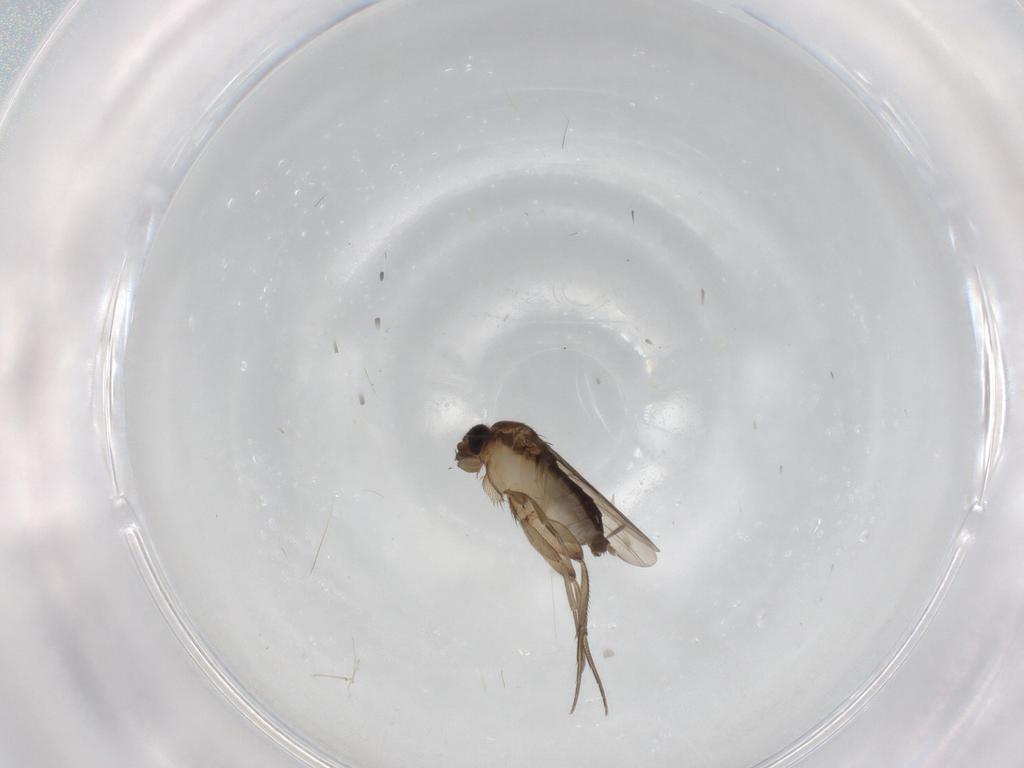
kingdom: Animalia
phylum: Arthropoda
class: Insecta
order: Diptera
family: Phoridae
